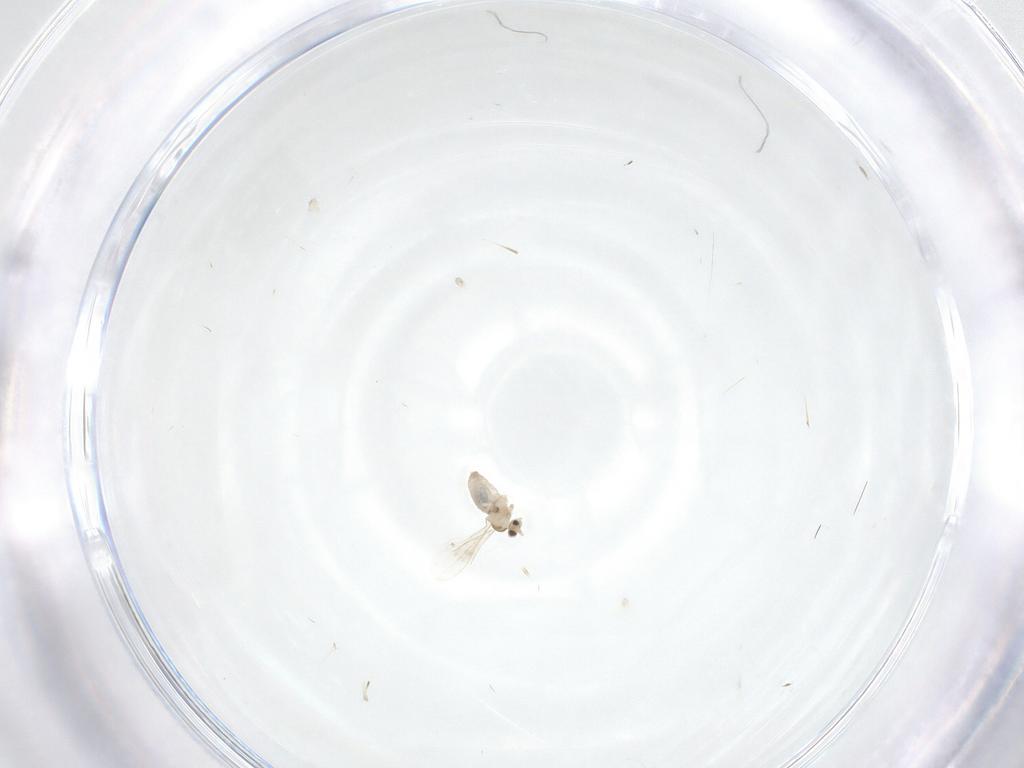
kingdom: Animalia
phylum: Arthropoda
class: Insecta
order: Diptera
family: Cecidomyiidae
